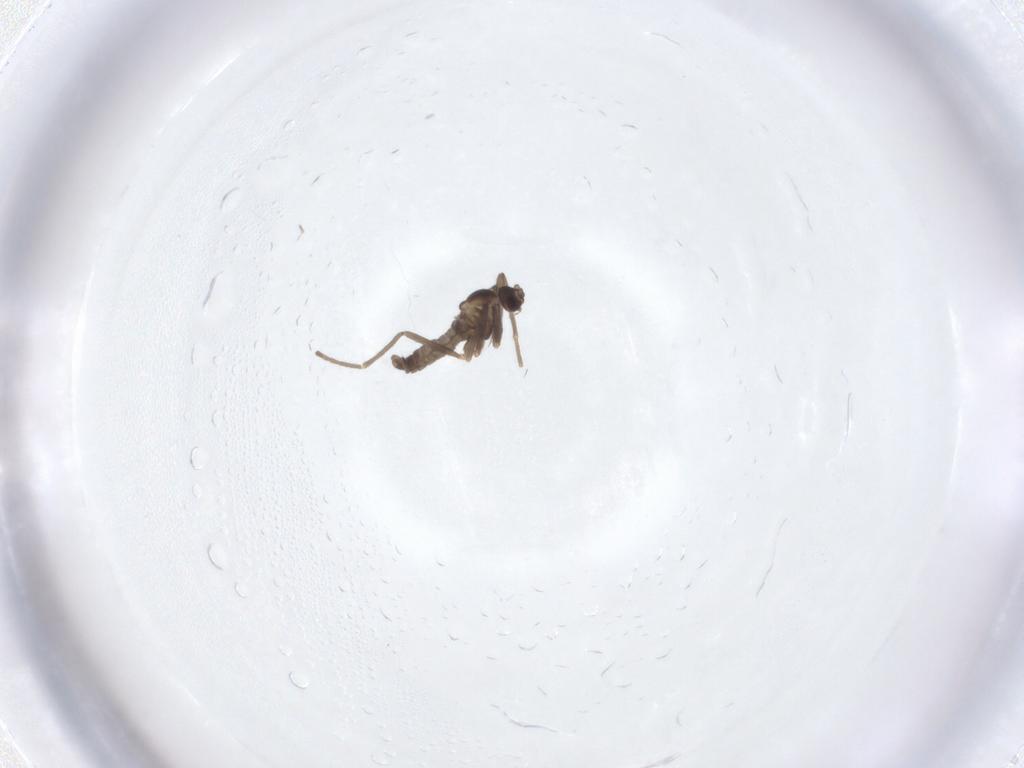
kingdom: Animalia
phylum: Arthropoda
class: Insecta
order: Diptera
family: Cecidomyiidae
